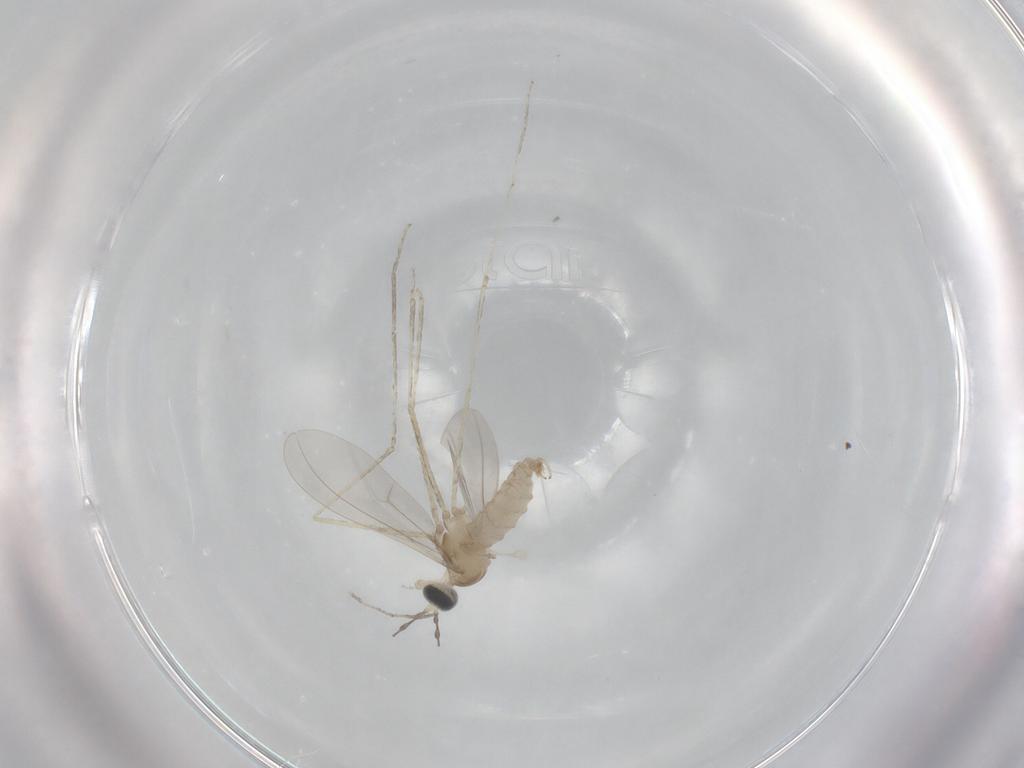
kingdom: Animalia
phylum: Arthropoda
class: Insecta
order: Diptera
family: Cecidomyiidae
